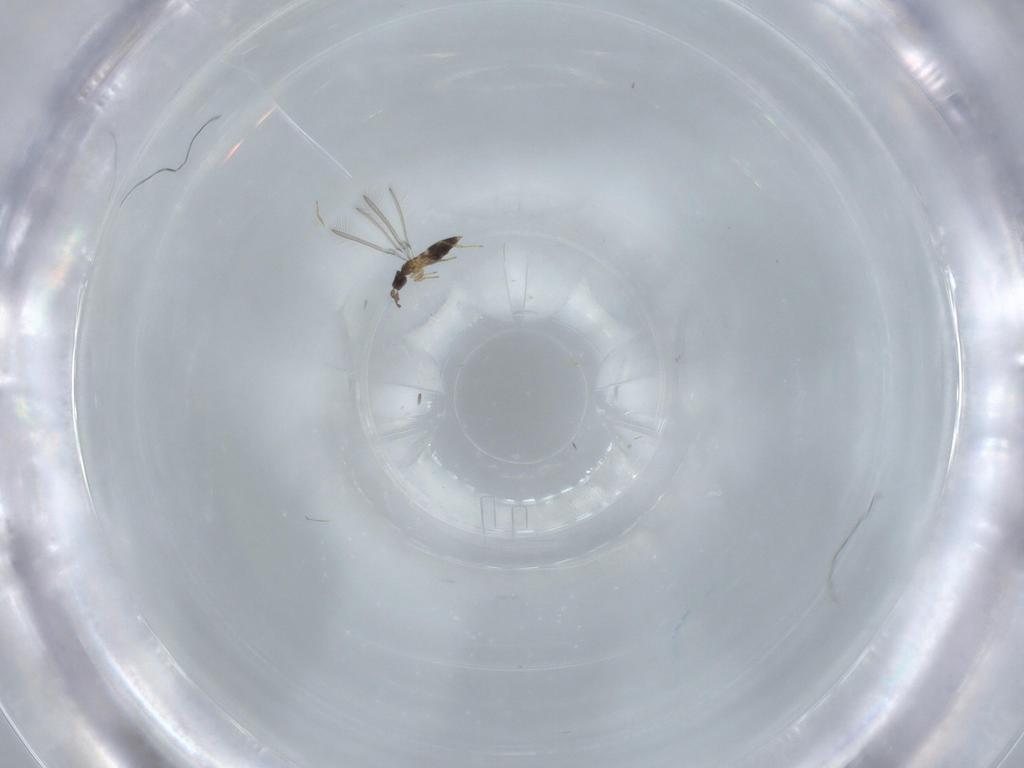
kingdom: Animalia
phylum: Arthropoda
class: Insecta
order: Hymenoptera
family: Mymaridae
